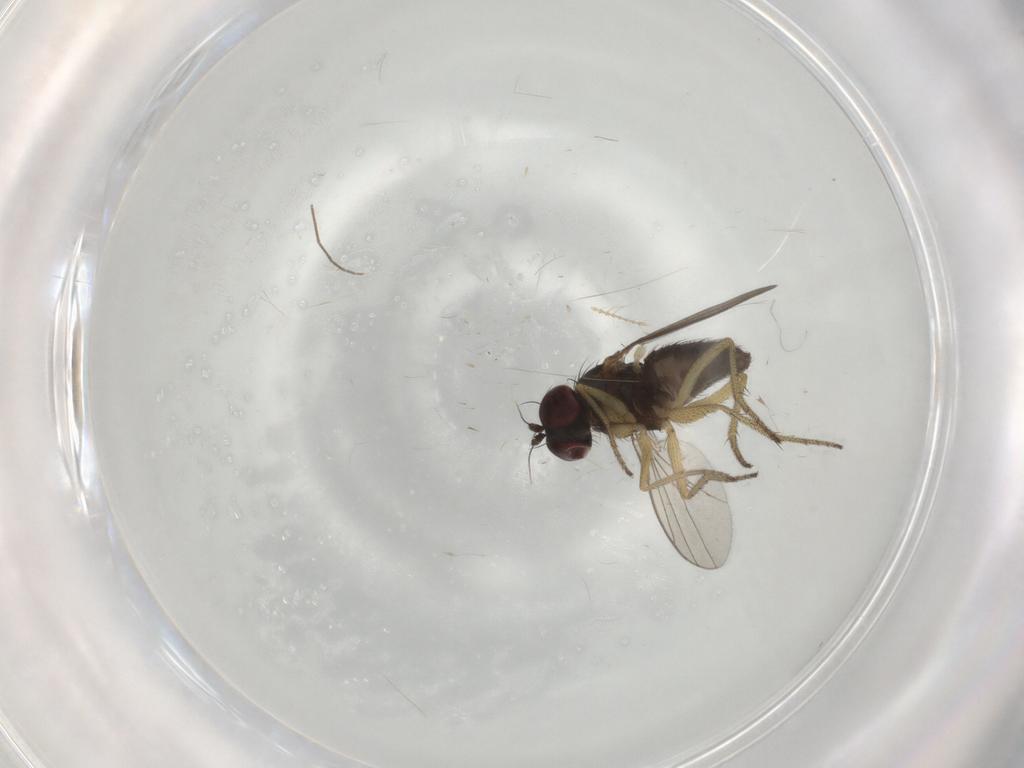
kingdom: Animalia
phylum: Arthropoda
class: Insecta
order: Diptera
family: Dolichopodidae
